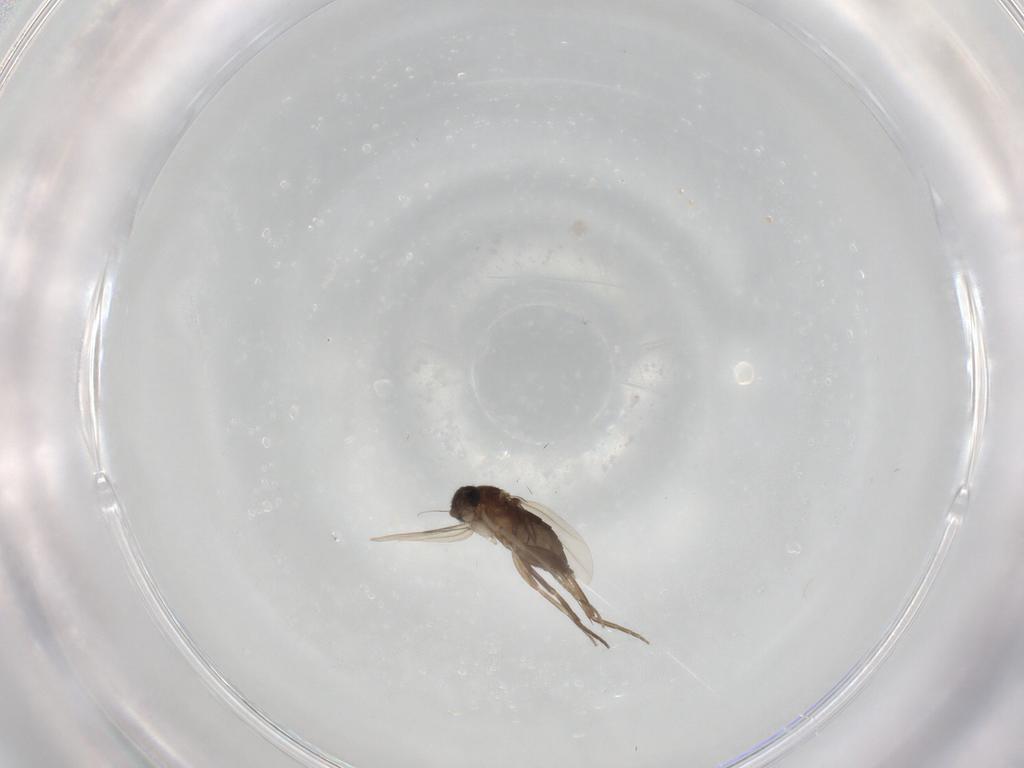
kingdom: Animalia
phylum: Arthropoda
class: Insecta
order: Diptera
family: Phoridae
